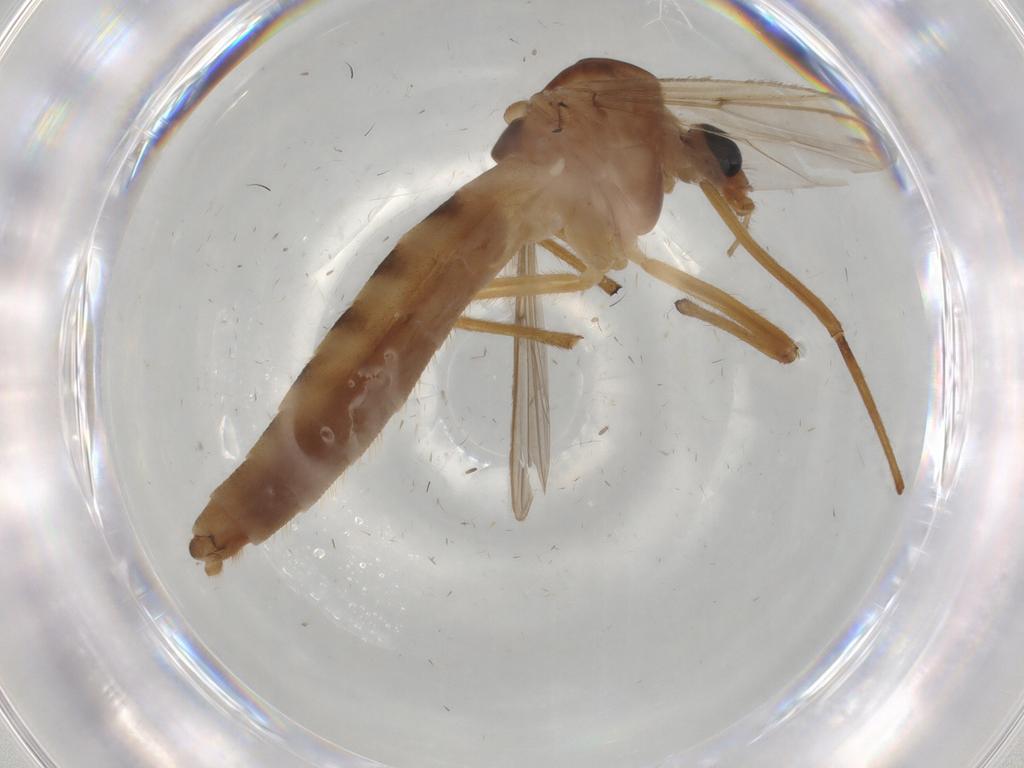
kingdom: Animalia
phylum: Arthropoda
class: Insecta
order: Diptera
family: Chironomidae
